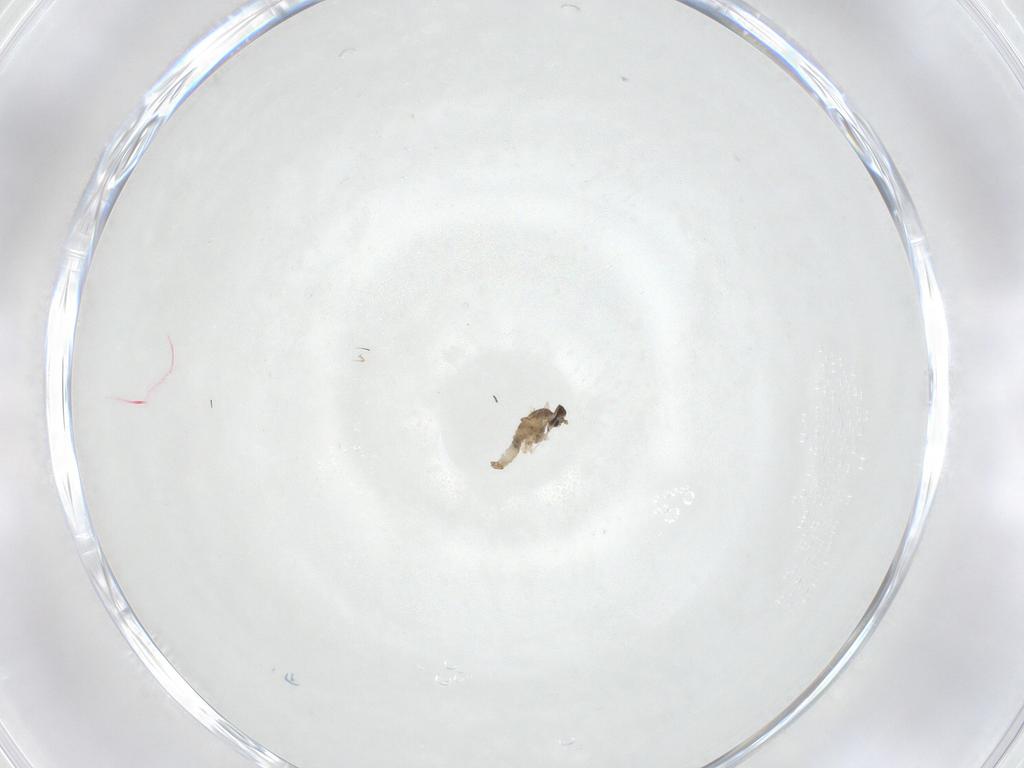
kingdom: Animalia
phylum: Arthropoda
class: Insecta
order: Diptera
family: Cecidomyiidae
